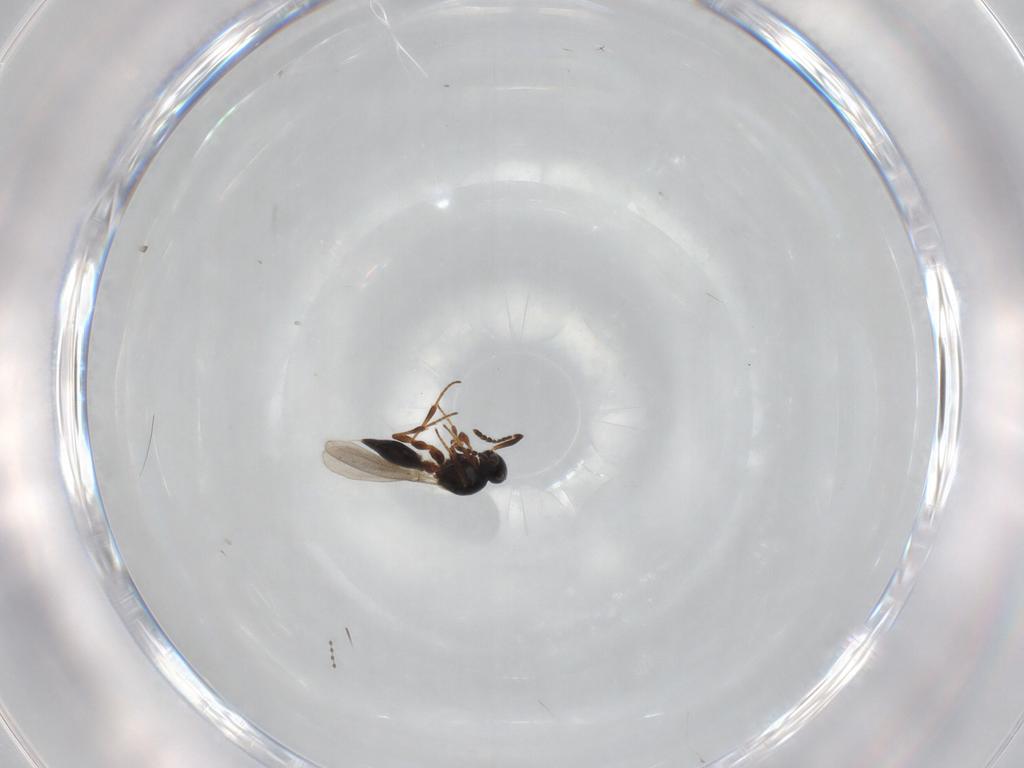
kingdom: Animalia
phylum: Arthropoda
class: Insecta
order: Hymenoptera
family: Platygastridae
